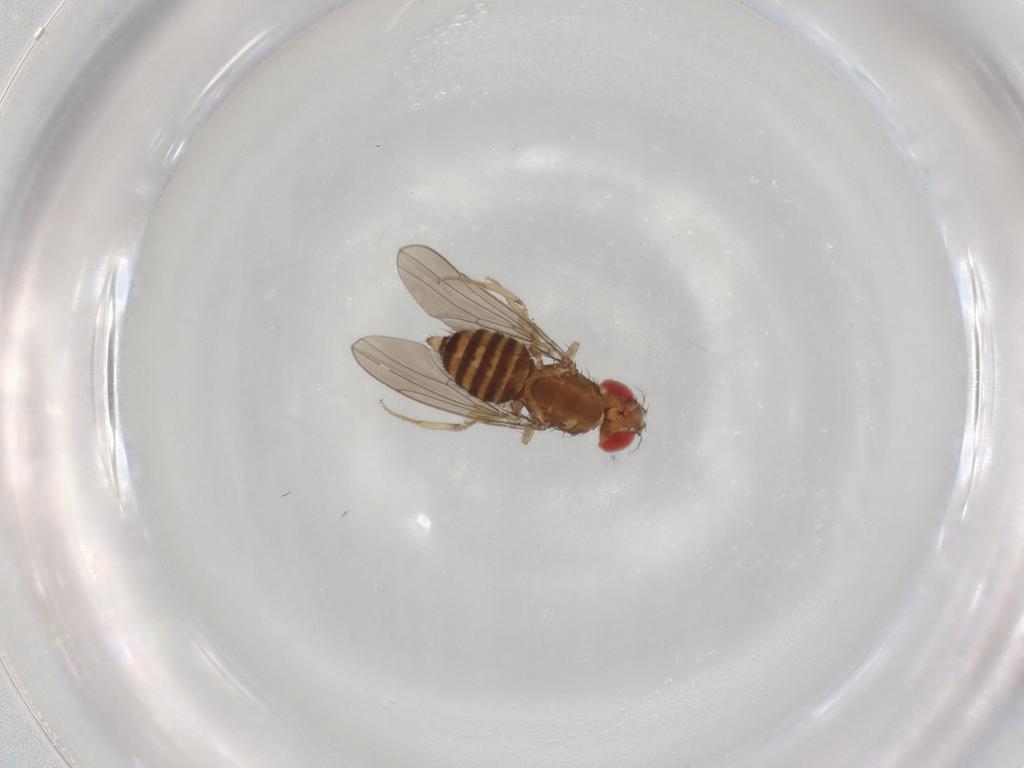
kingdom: Animalia
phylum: Arthropoda
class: Insecta
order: Diptera
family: Drosophilidae
